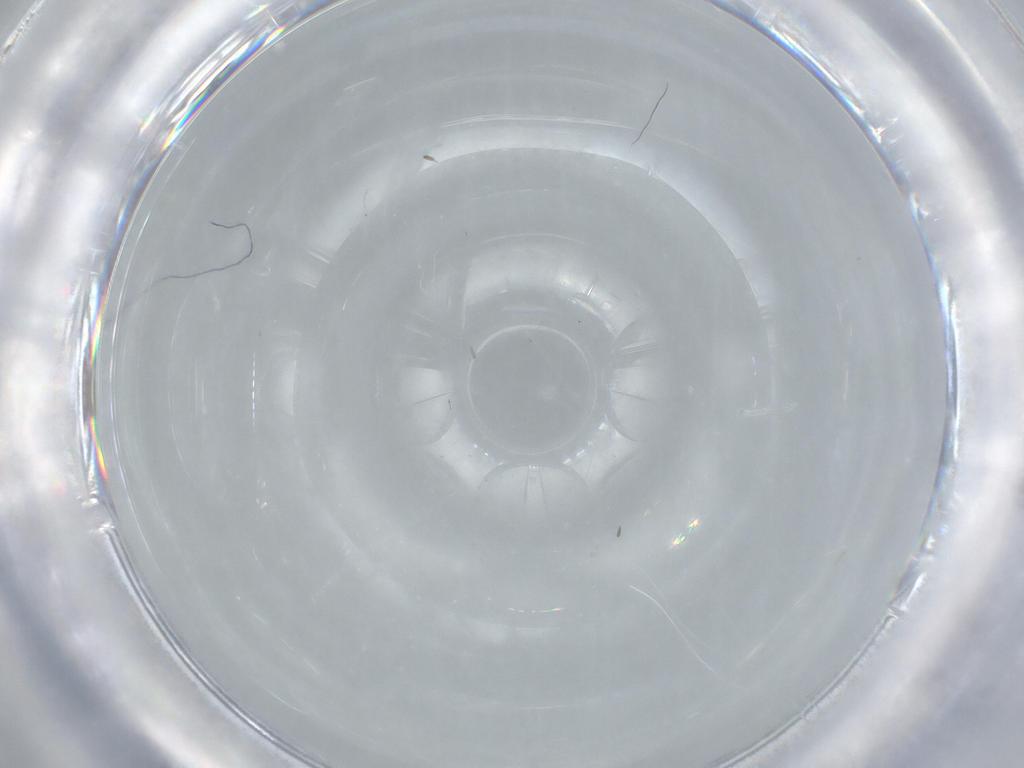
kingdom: Animalia
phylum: Arthropoda
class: Insecta
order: Diptera
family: Cecidomyiidae
